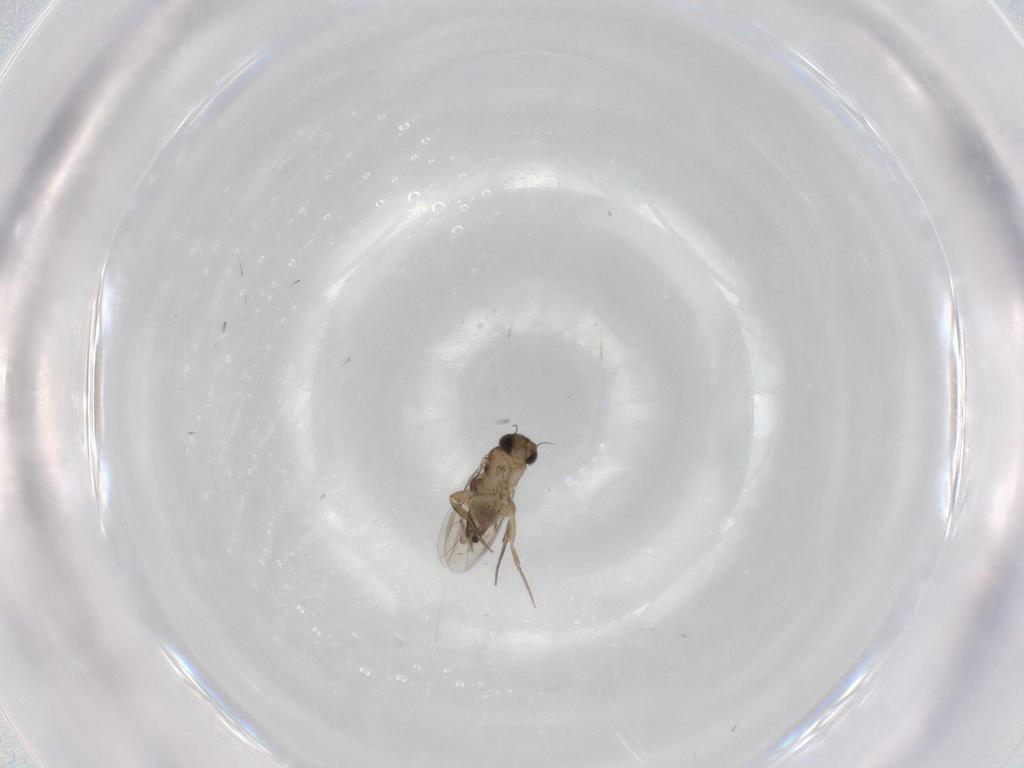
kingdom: Animalia
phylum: Arthropoda
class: Insecta
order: Diptera
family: Phoridae
